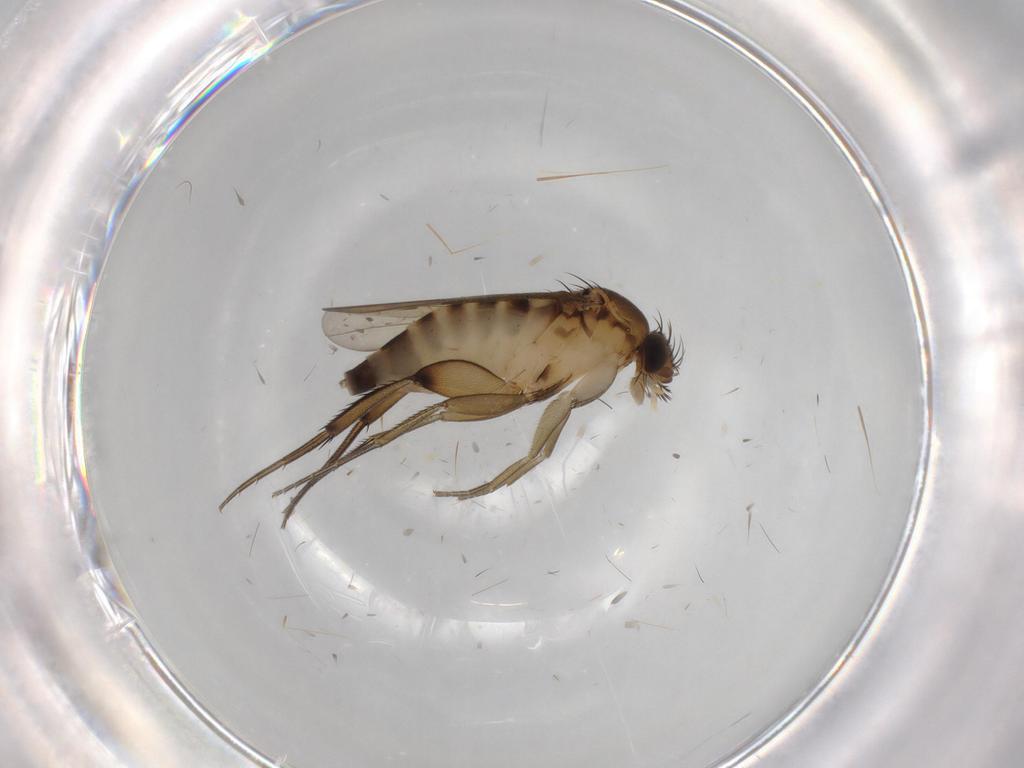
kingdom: Animalia
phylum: Arthropoda
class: Insecta
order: Diptera
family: Phoridae
